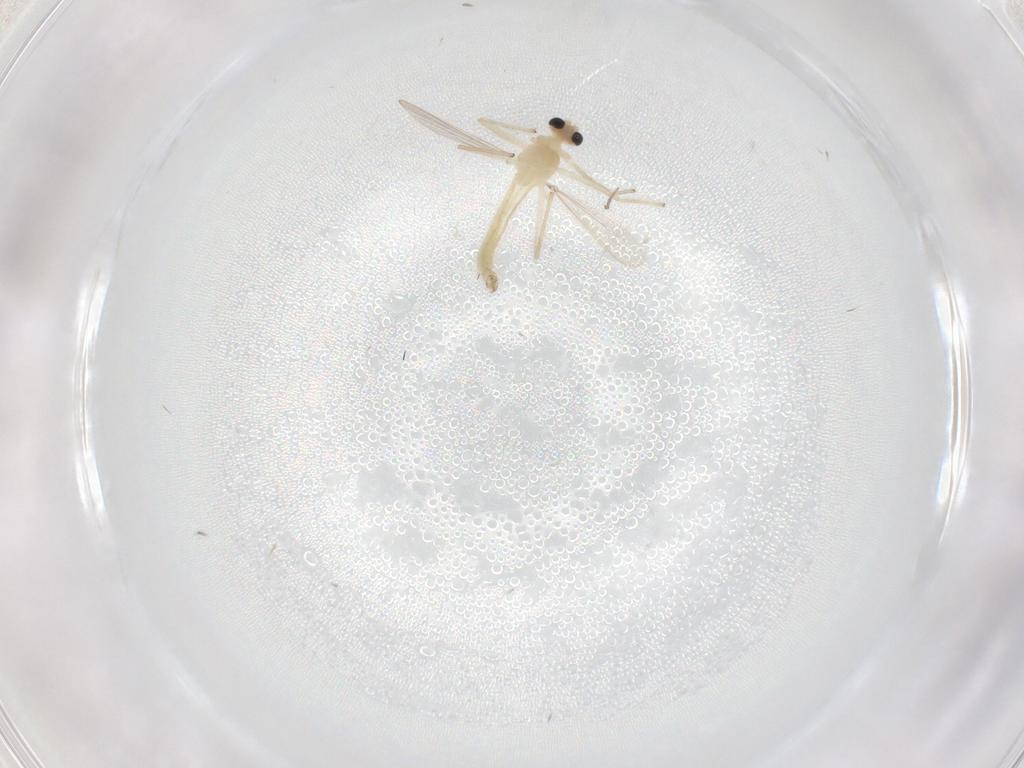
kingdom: Animalia
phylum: Arthropoda
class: Insecta
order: Diptera
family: Chironomidae
